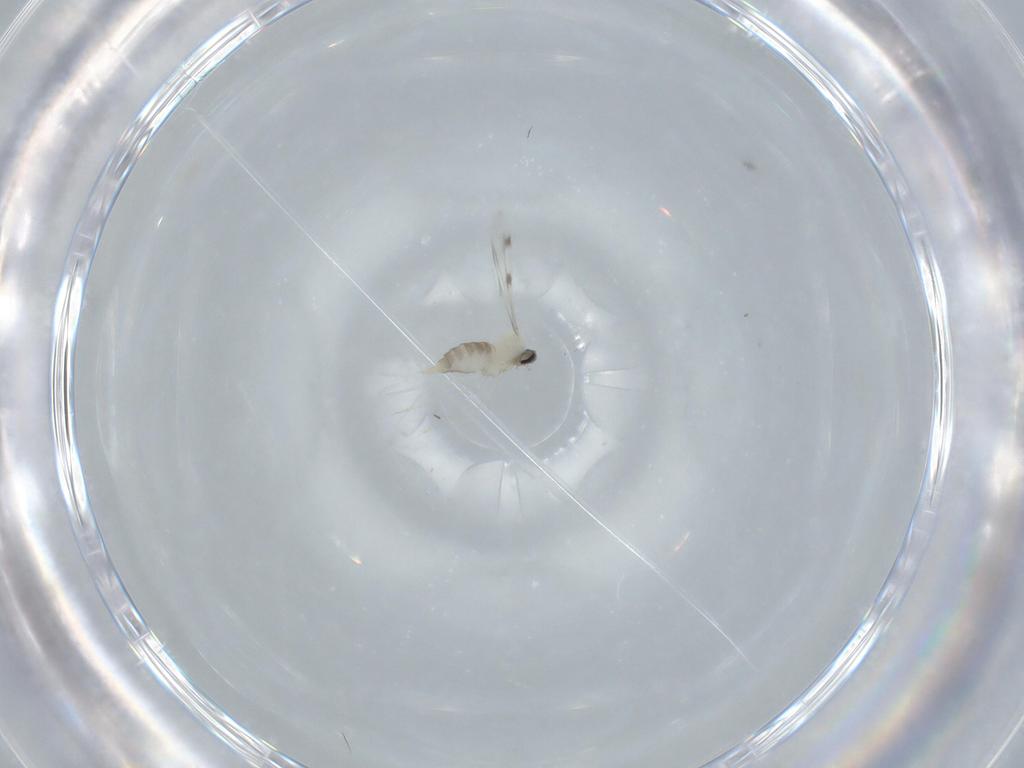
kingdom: Animalia
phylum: Arthropoda
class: Insecta
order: Diptera
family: Cecidomyiidae
